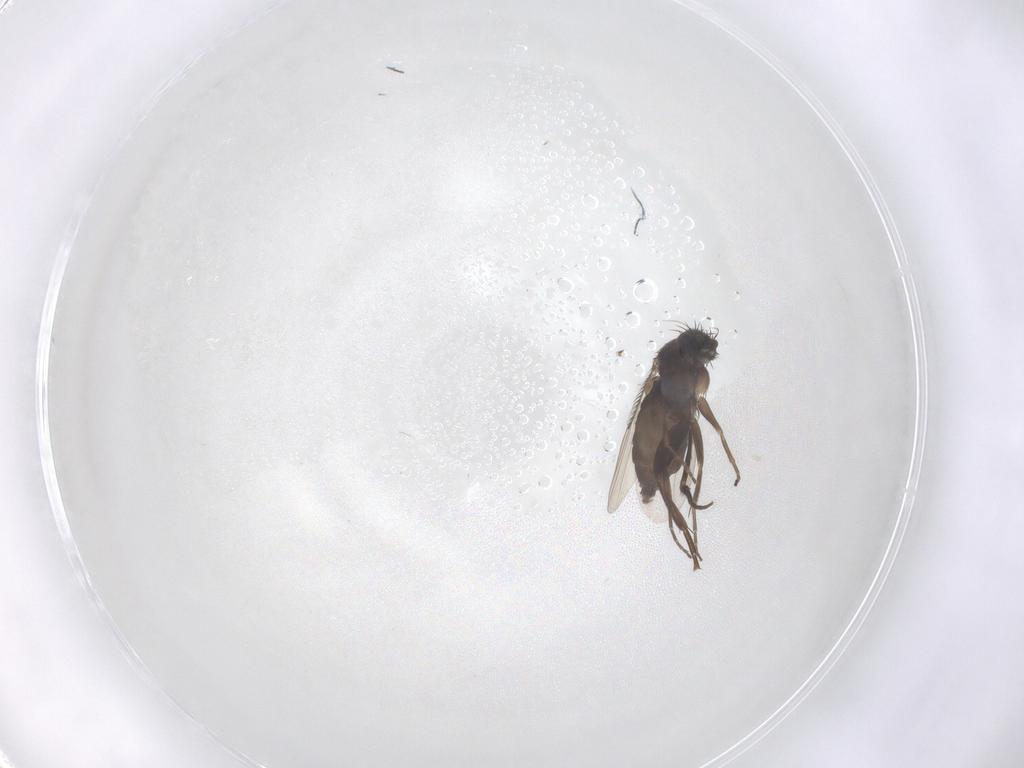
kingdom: Animalia
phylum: Arthropoda
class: Insecta
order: Diptera
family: Phoridae
